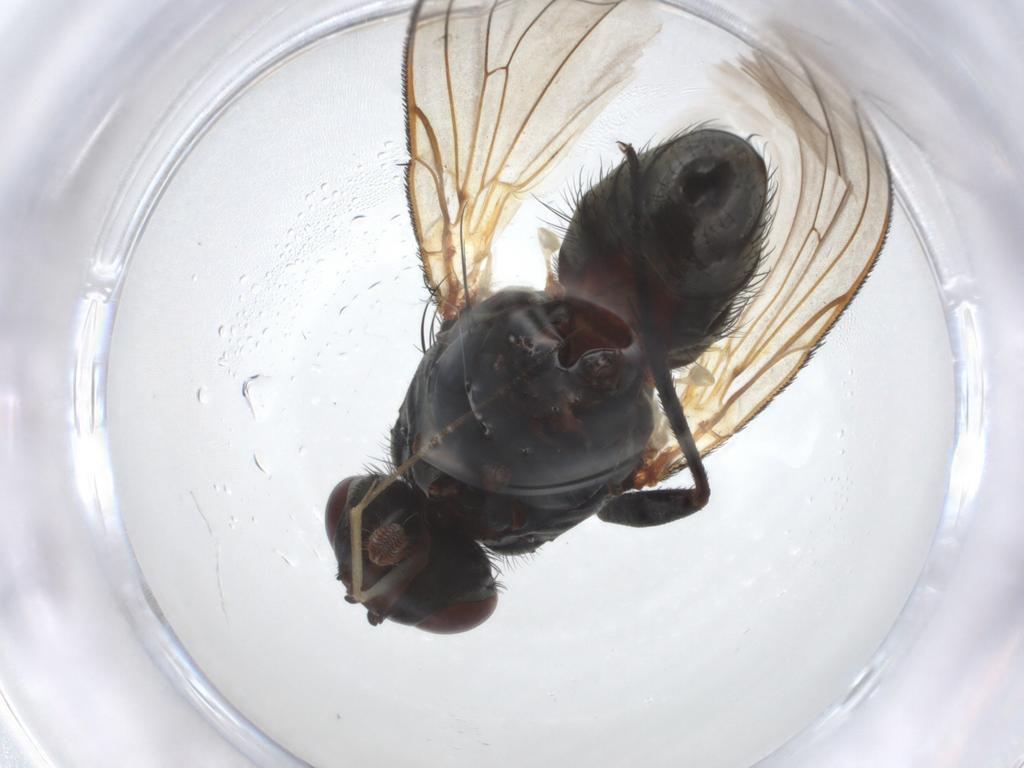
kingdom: Animalia
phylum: Arthropoda
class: Insecta
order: Diptera
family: Anthomyiidae
